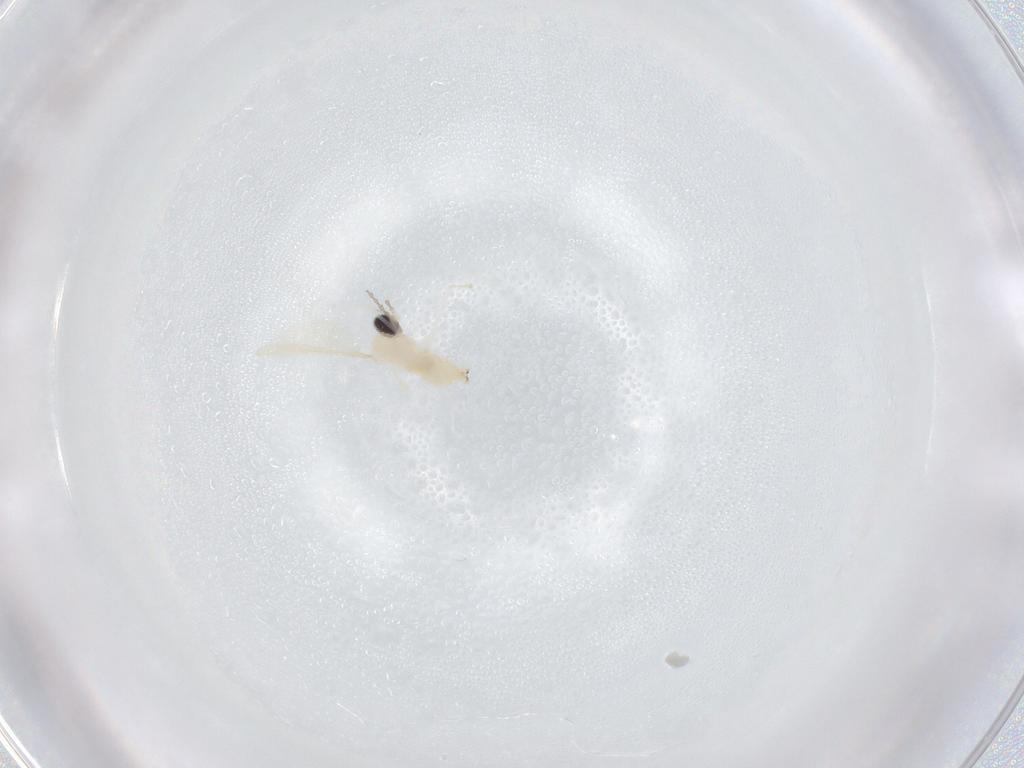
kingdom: Animalia
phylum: Arthropoda
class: Insecta
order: Diptera
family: Cecidomyiidae
